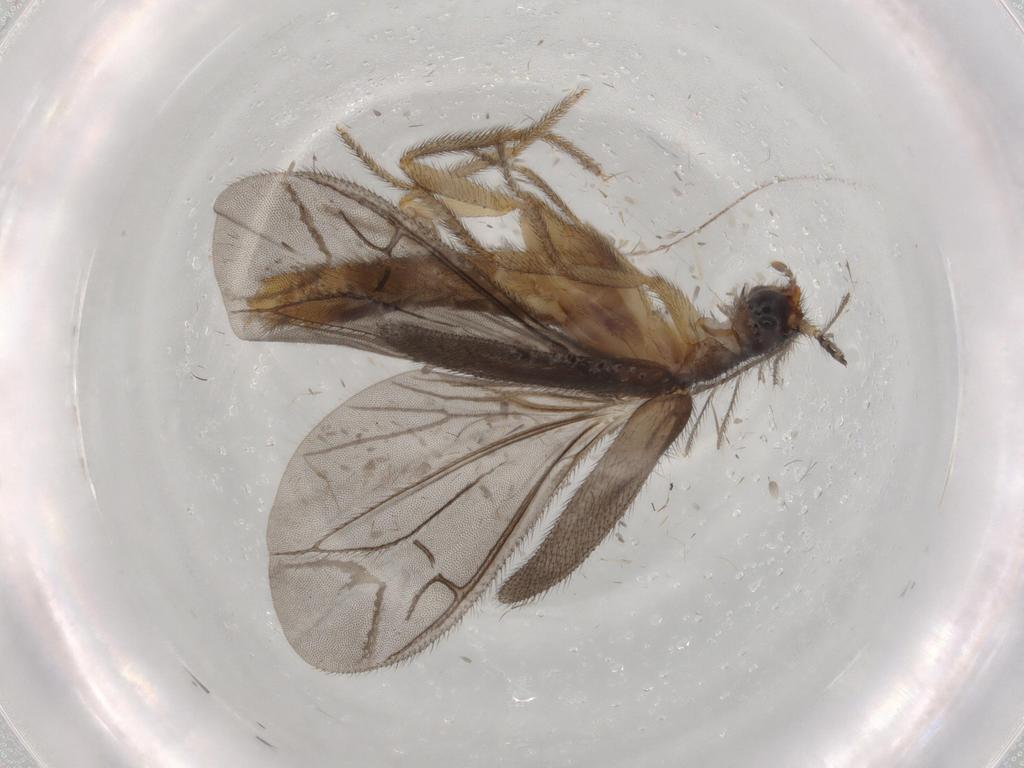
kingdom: Animalia
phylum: Arthropoda
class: Insecta
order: Coleoptera
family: Phengodidae
